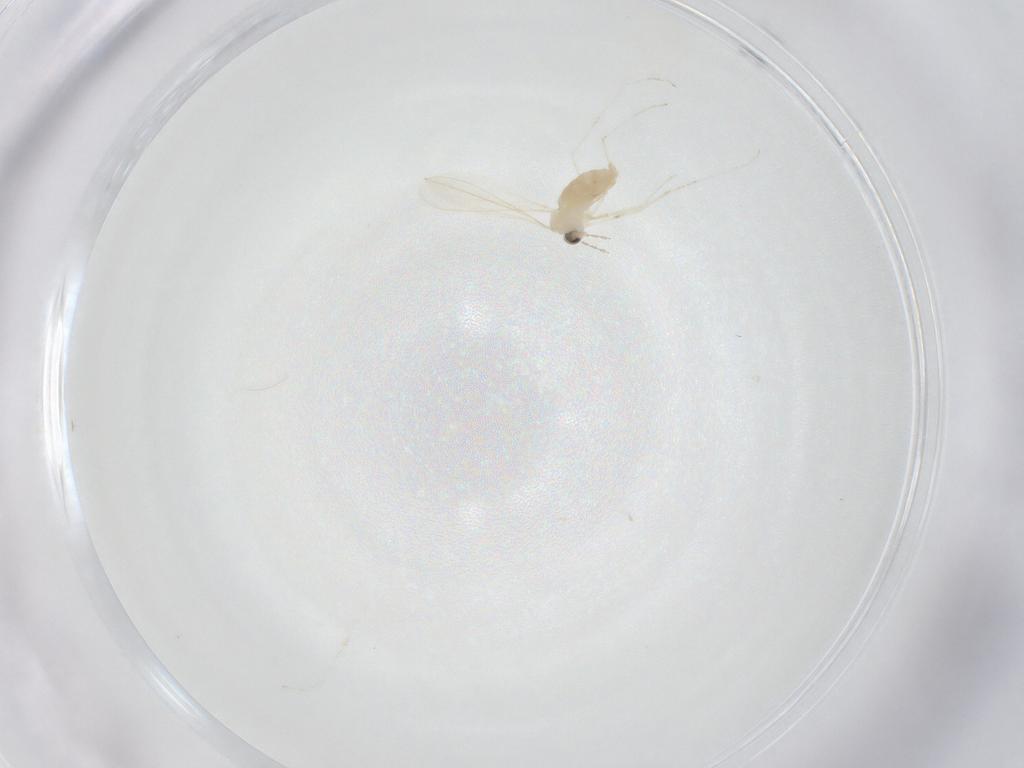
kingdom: Animalia
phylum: Arthropoda
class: Insecta
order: Diptera
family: Cecidomyiidae
